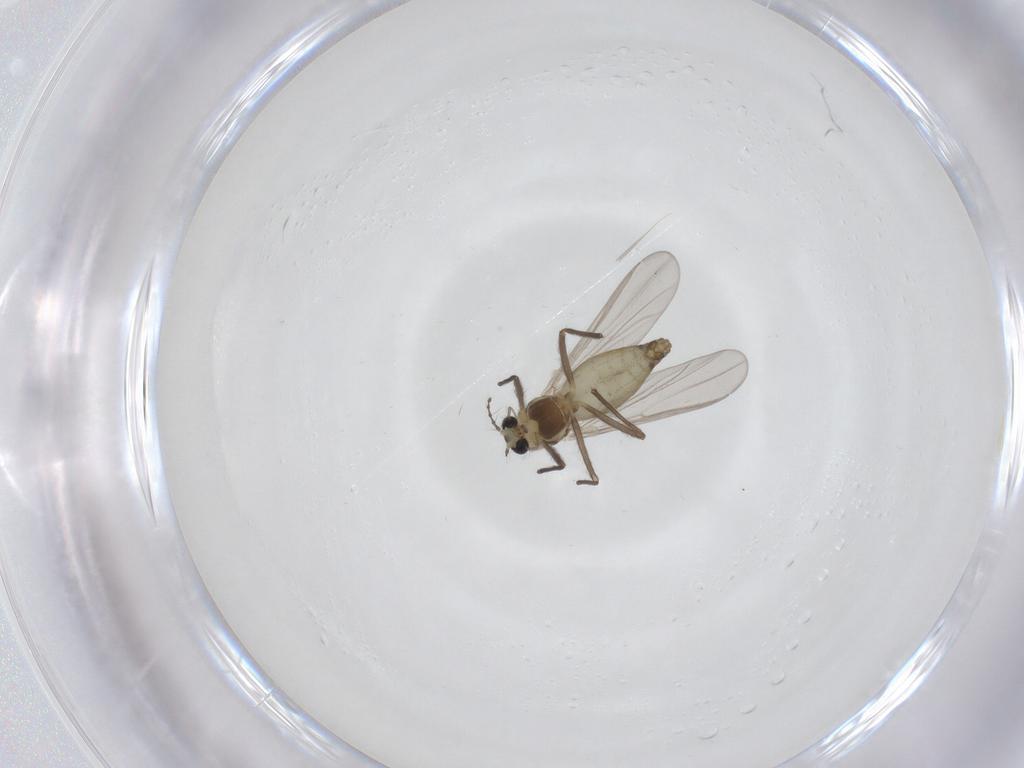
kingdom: Animalia
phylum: Arthropoda
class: Insecta
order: Diptera
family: Chironomidae
